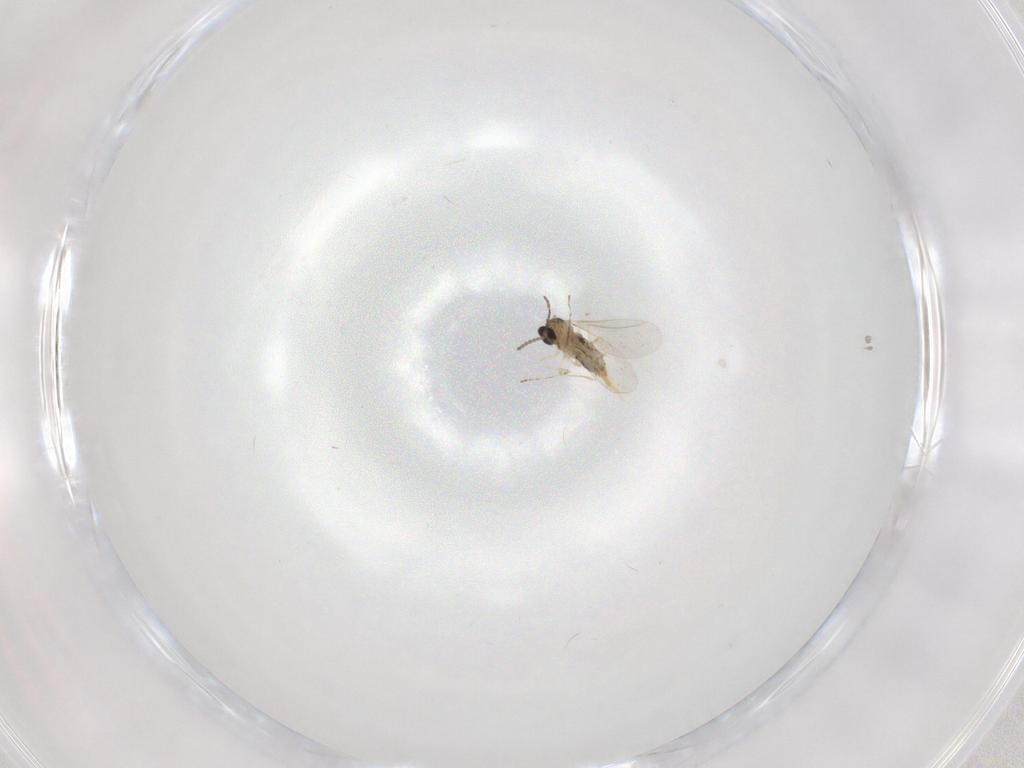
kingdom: Animalia
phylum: Arthropoda
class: Insecta
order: Diptera
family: Cecidomyiidae
